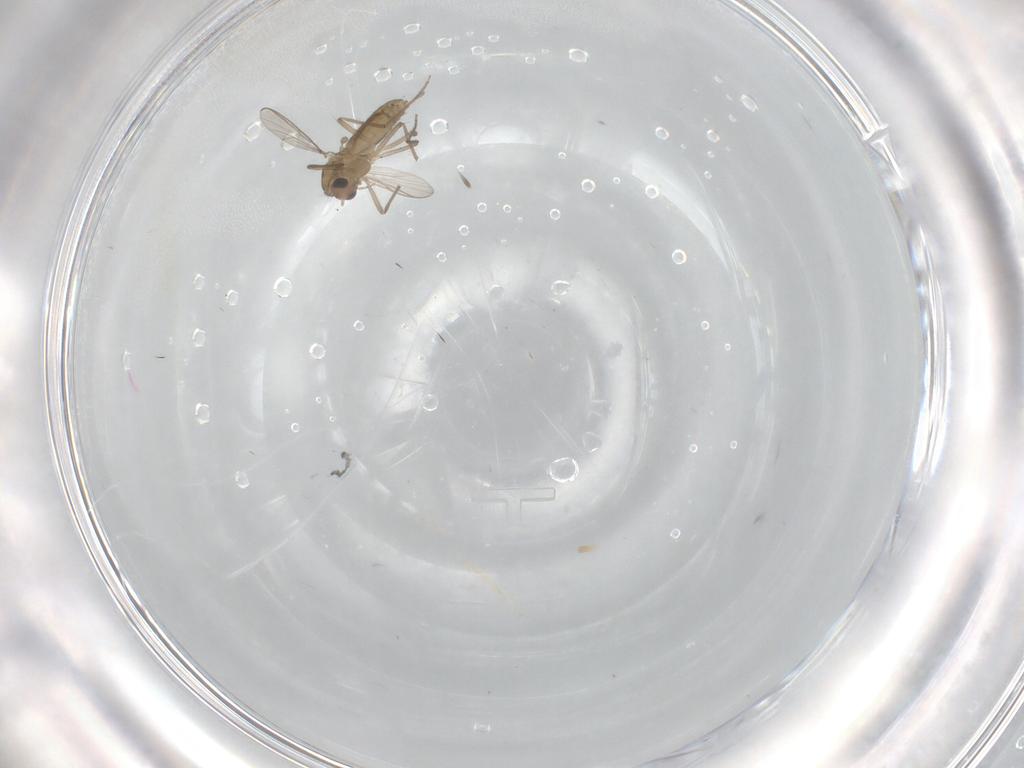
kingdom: Animalia
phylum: Arthropoda
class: Insecta
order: Diptera
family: Chironomidae
